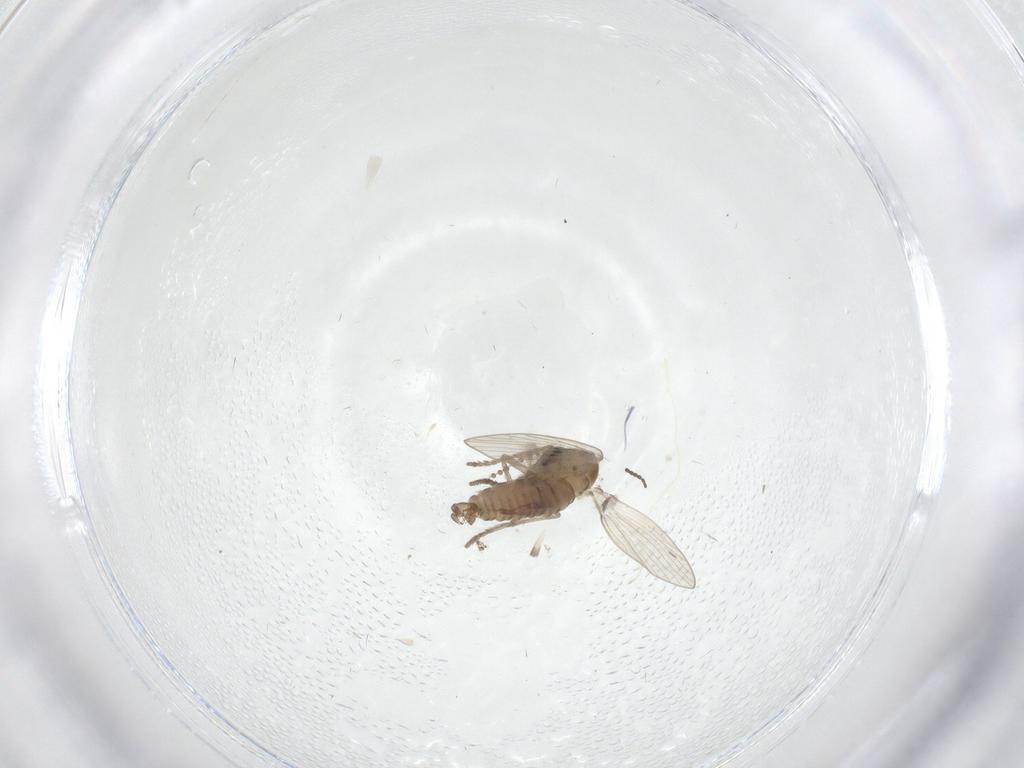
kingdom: Animalia
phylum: Arthropoda
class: Insecta
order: Diptera
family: Cecidomyiidae
